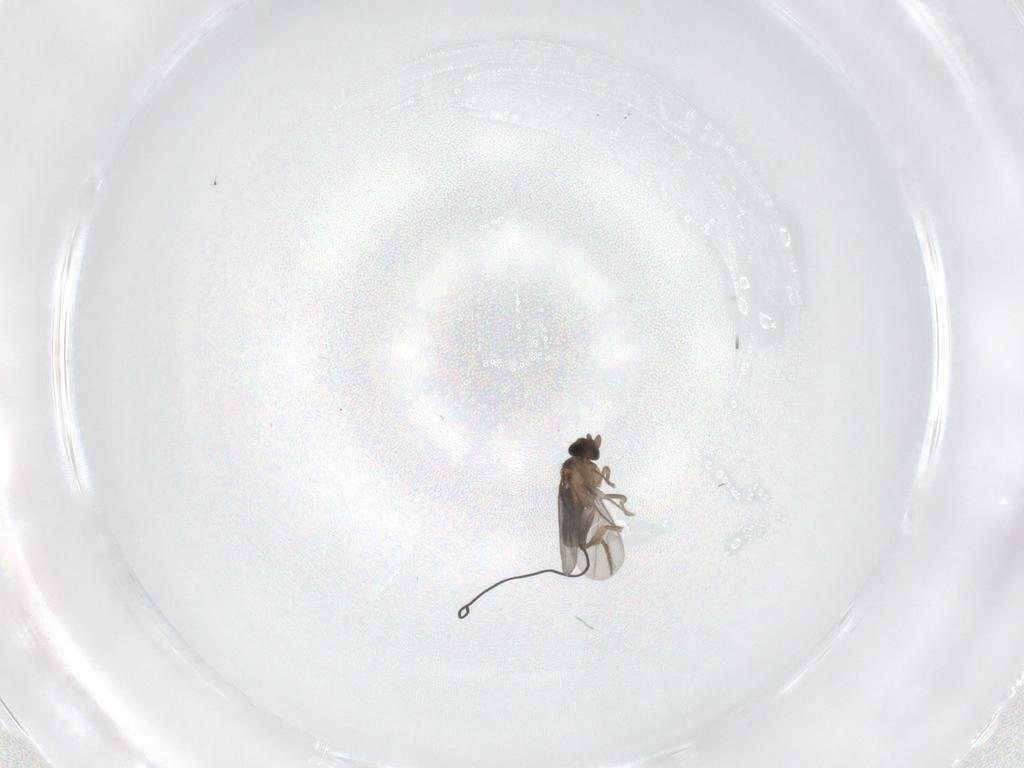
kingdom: Animalia
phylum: Arthropoda
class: Insecta
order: Diptera
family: Cecidomyiidae
